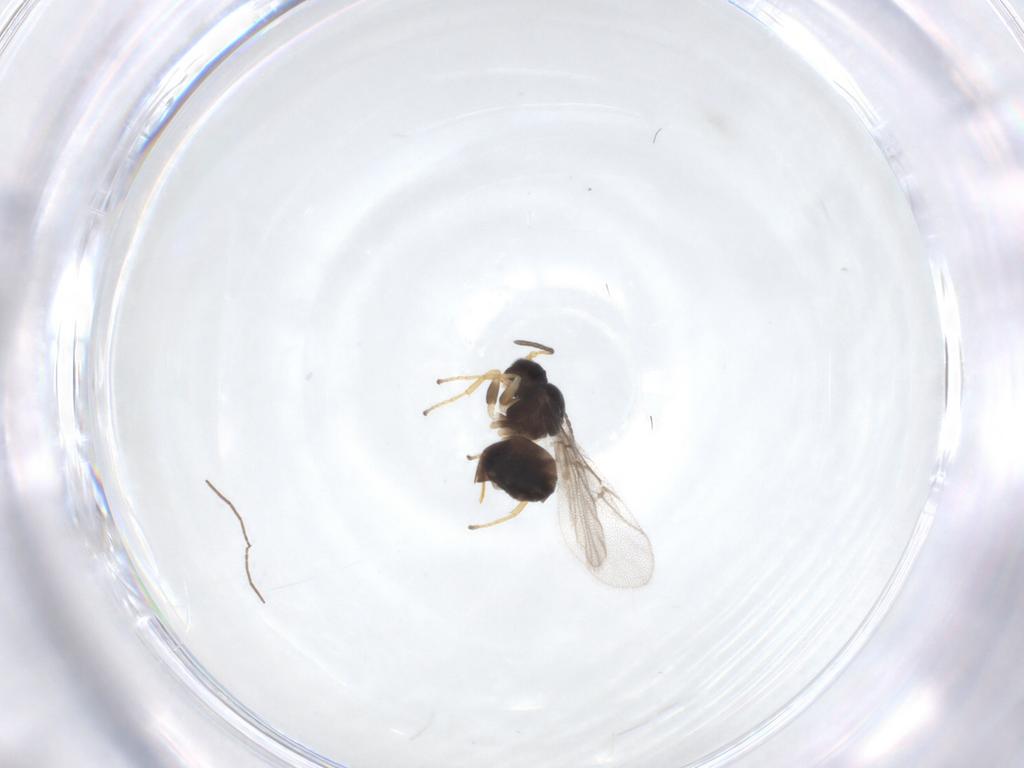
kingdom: Animalia
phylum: Arthropoda
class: Insecta
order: Hymenoptera
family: Cynipidae
